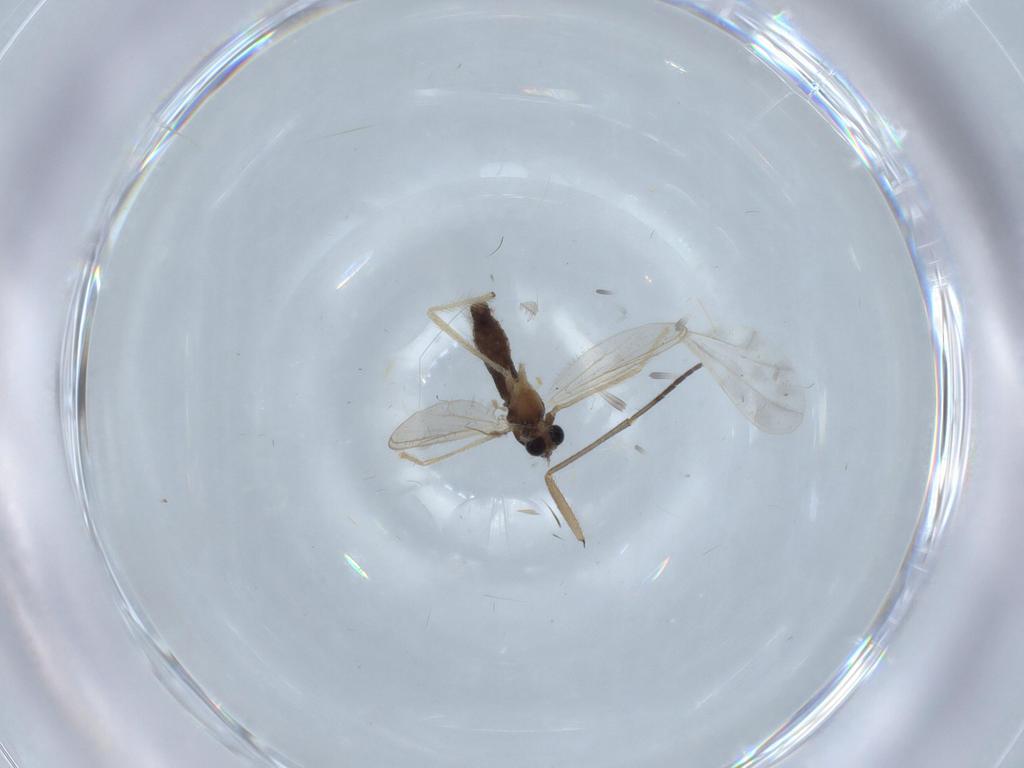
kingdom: Animalia
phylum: Arthropoda
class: Insecta
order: Diptera
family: Chironomidae
